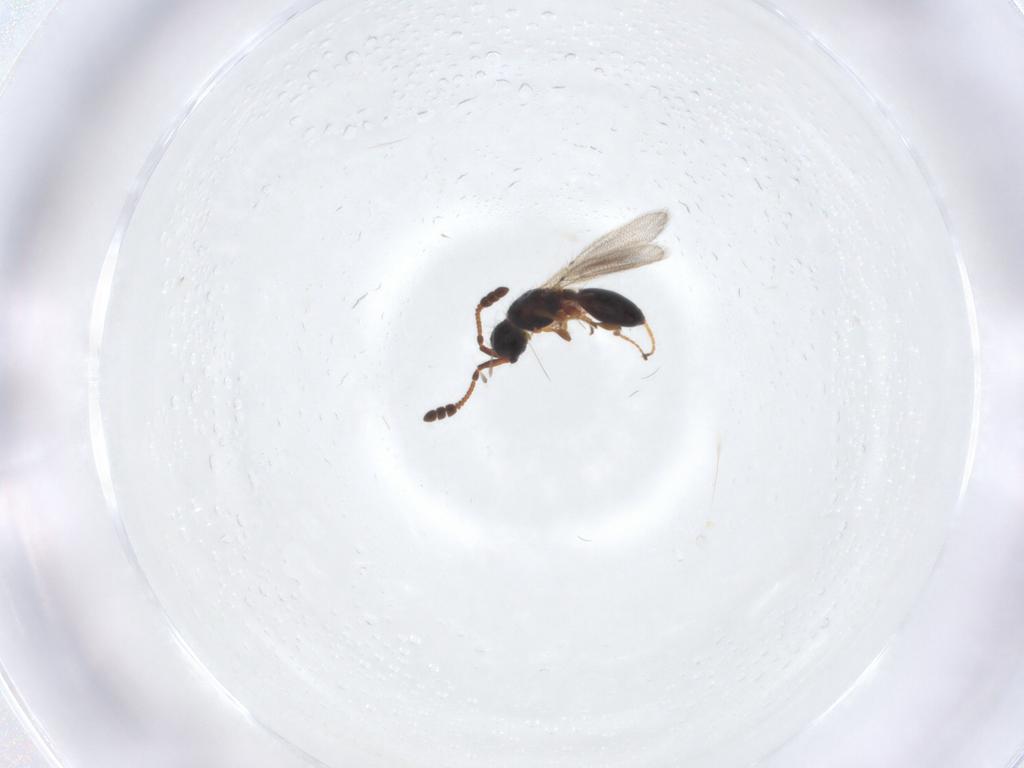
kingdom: Animalia
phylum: Arthropoda
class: Insecta
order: Hymenoptera
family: Diapriidae
